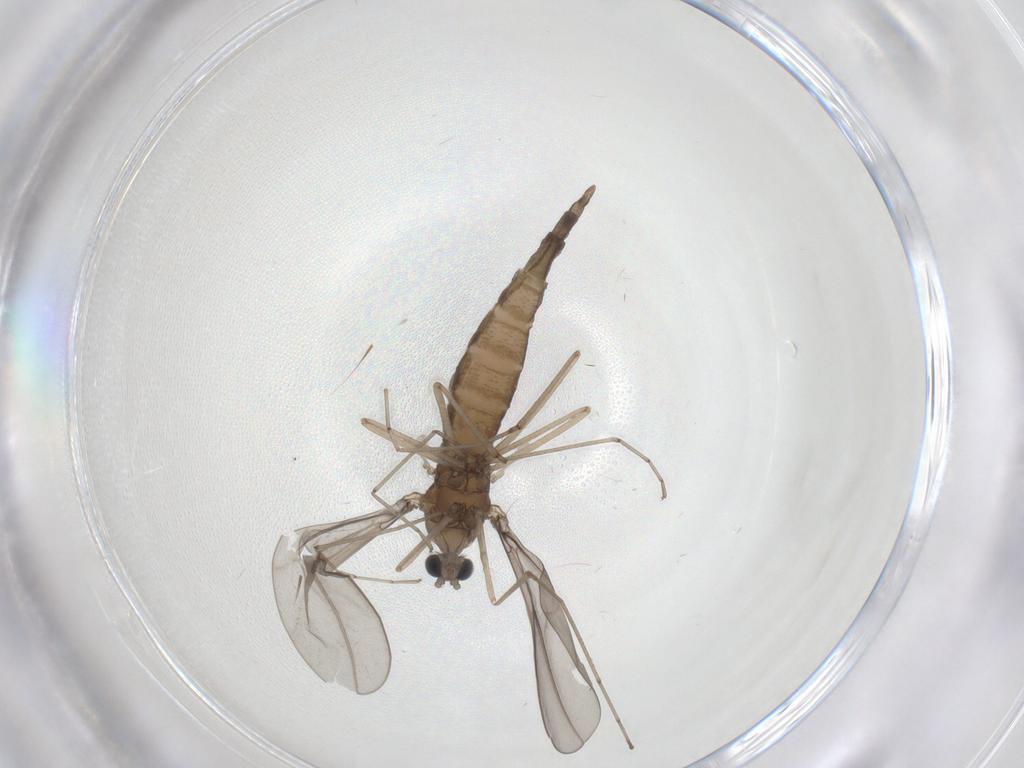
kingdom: Animalia
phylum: Arthropoda
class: Insecta
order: Diptera
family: Cecidomyiidae
